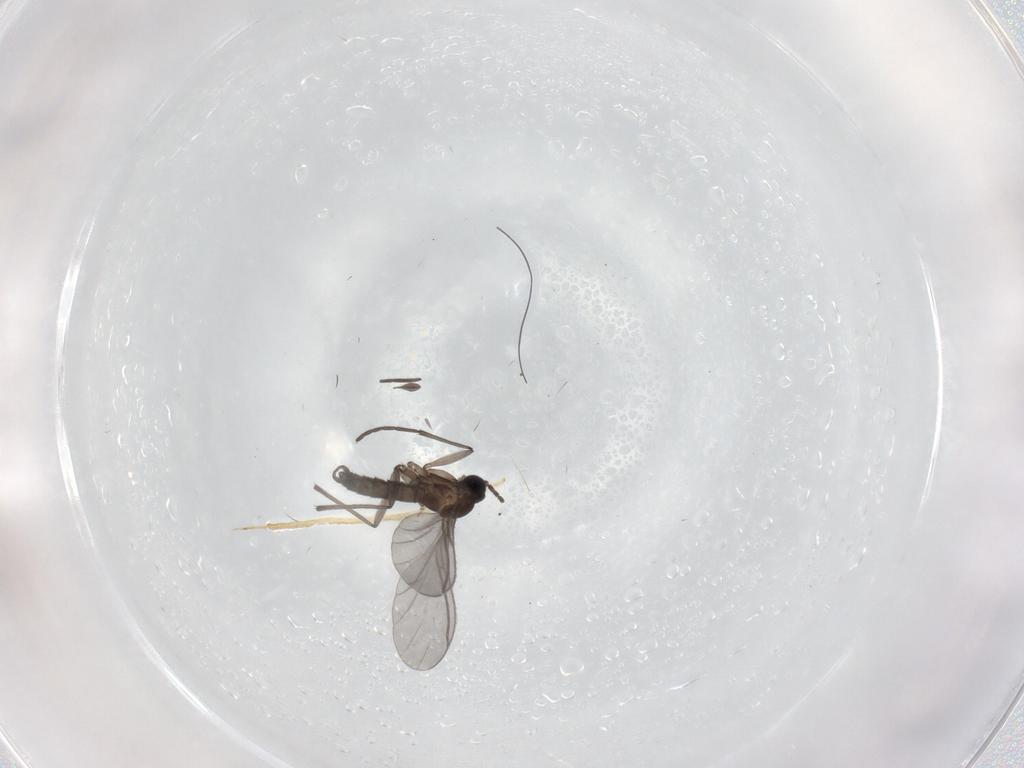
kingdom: Animalia
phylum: Arthropoda
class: Insecta
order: Diptera
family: Sciaridae
